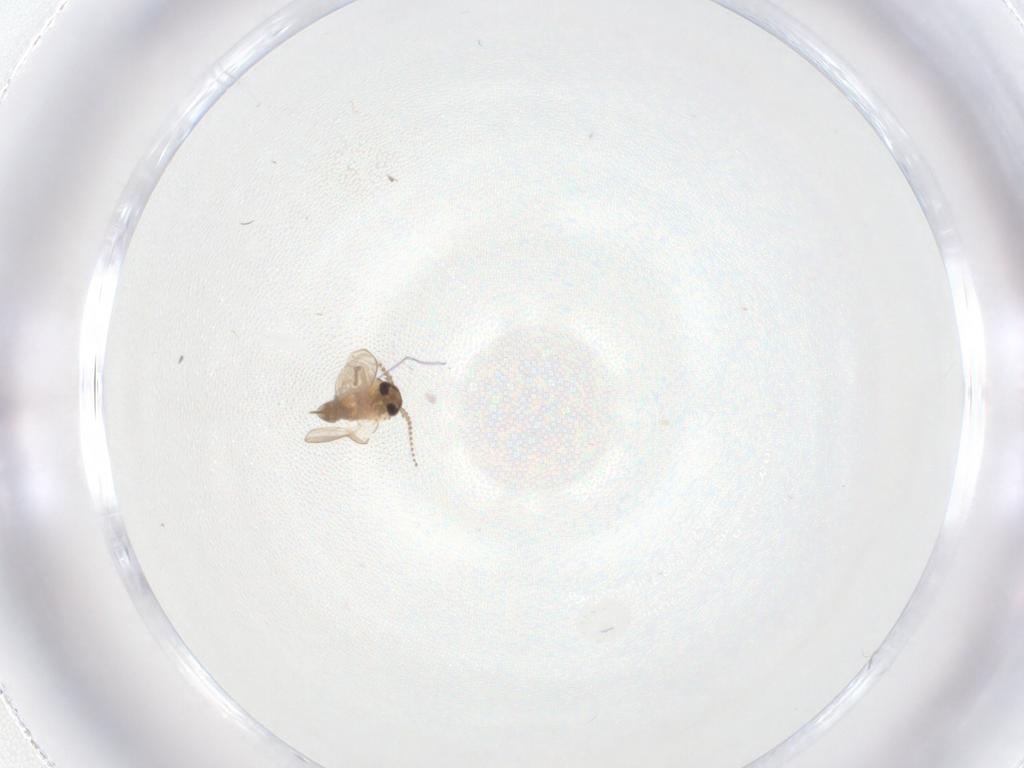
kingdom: Animalia
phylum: Arthropoda
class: Insecta
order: Diptera
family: Psychodidae
